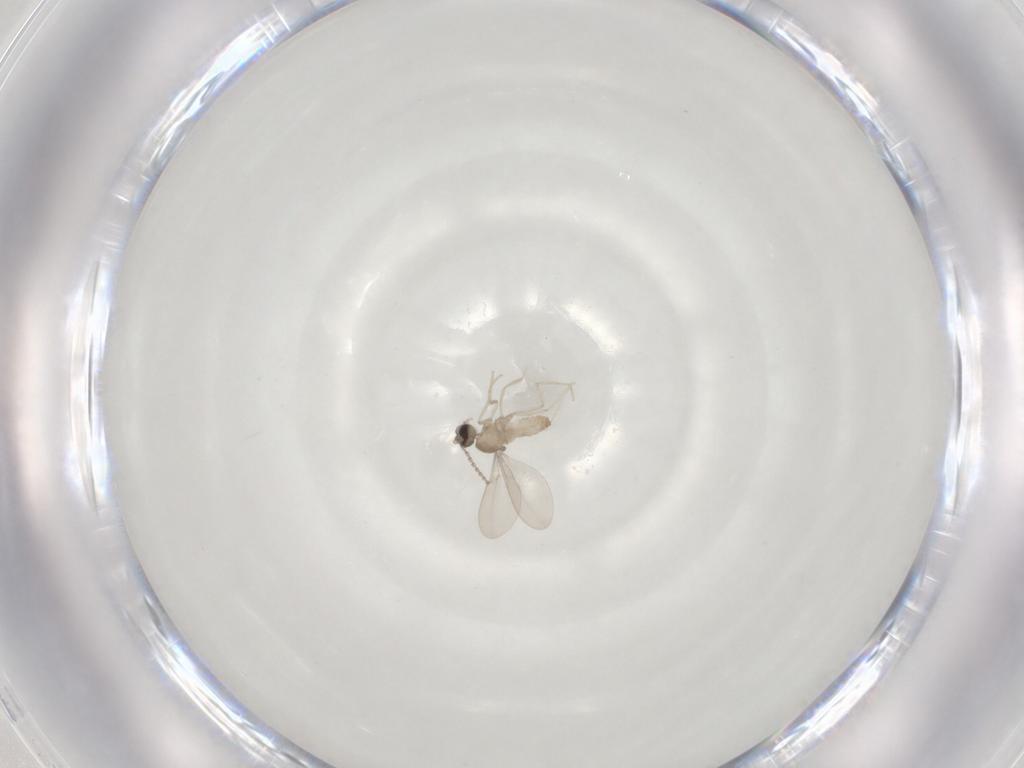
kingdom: Animalia
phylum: Arthropoda
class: Insecta
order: Diptera
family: Cecidomyiidae
